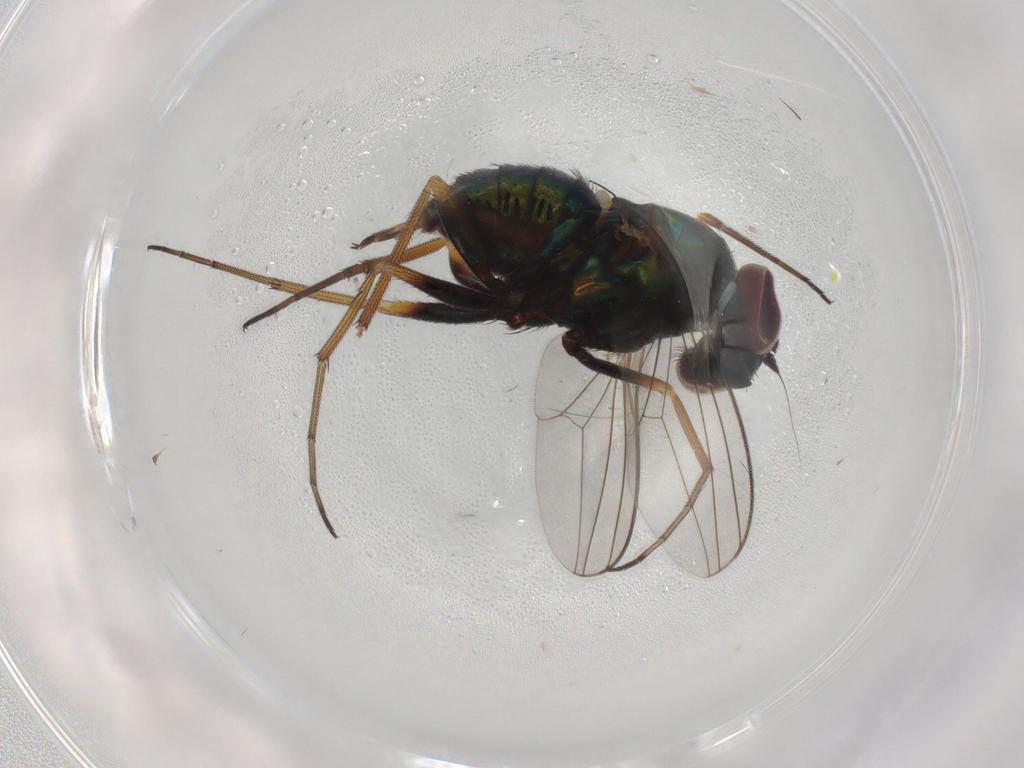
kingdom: Animalia
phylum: Arthropoda
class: Insecta
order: Diptera
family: Dolichopodidae
